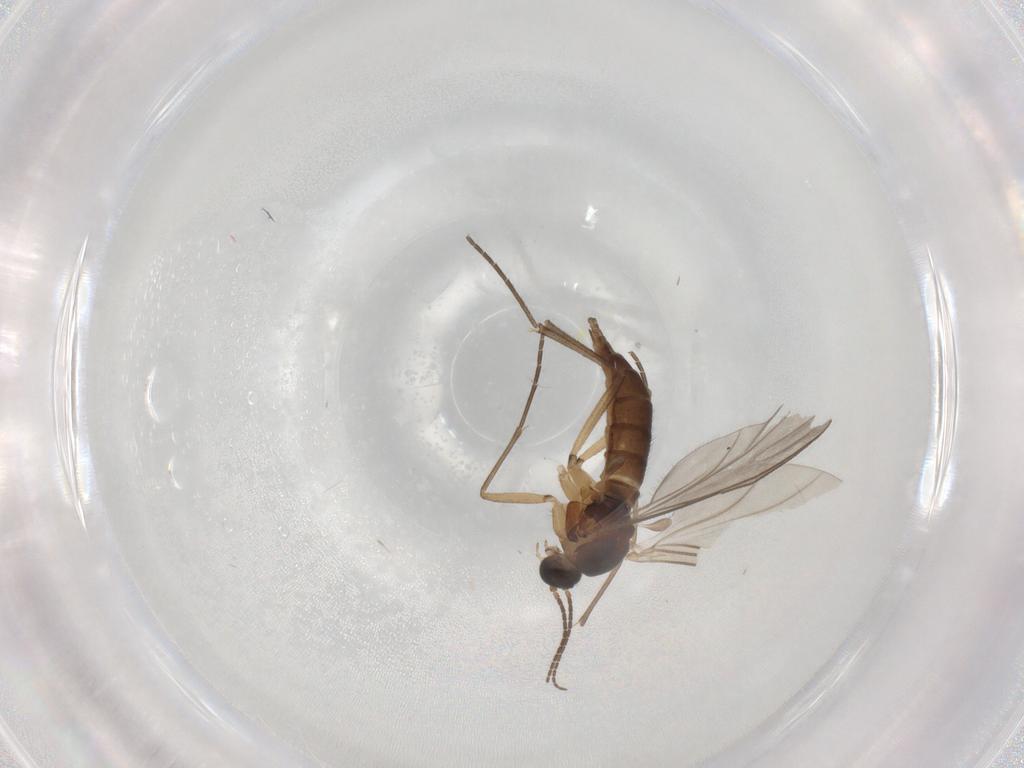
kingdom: Animalia
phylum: Arthropoda
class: Insecta
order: Diptera
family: Sciaridae
